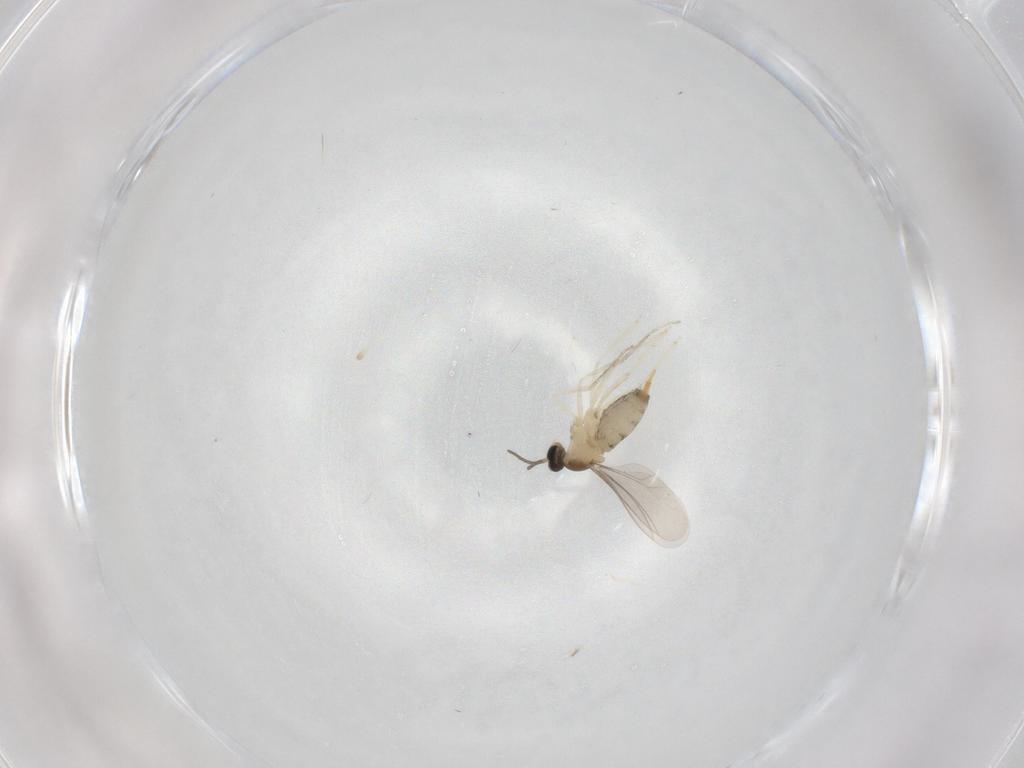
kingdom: Animalia
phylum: Arthropoda
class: Insecta
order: Diptera
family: Cecidomyiidae
